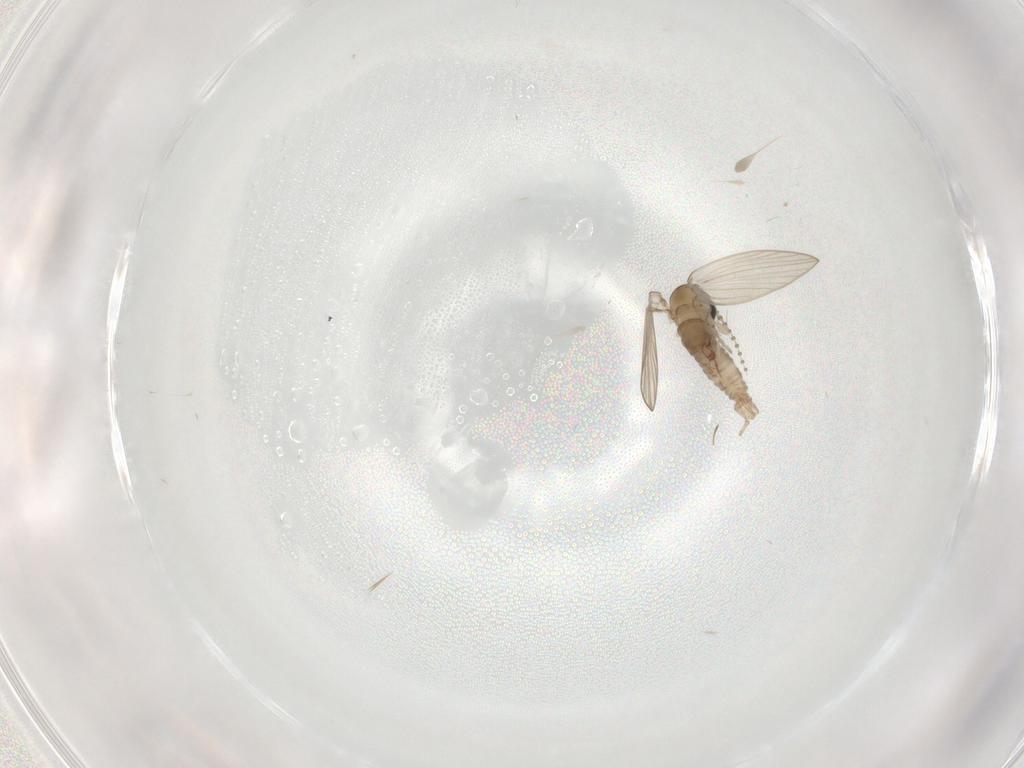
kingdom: Animalia
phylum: Arthropoda
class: Insecta
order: Diptera
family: Psychodidae
